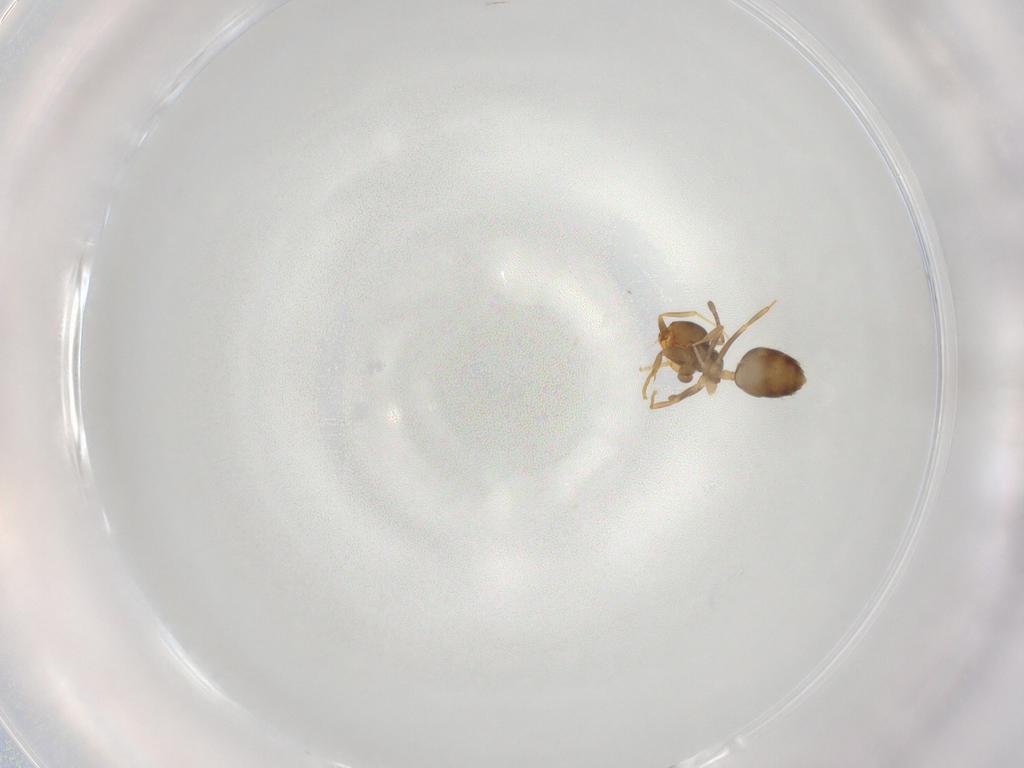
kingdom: Animalia
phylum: Arthropoda
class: Insecta
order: Hymenoptera
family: Formicidae
